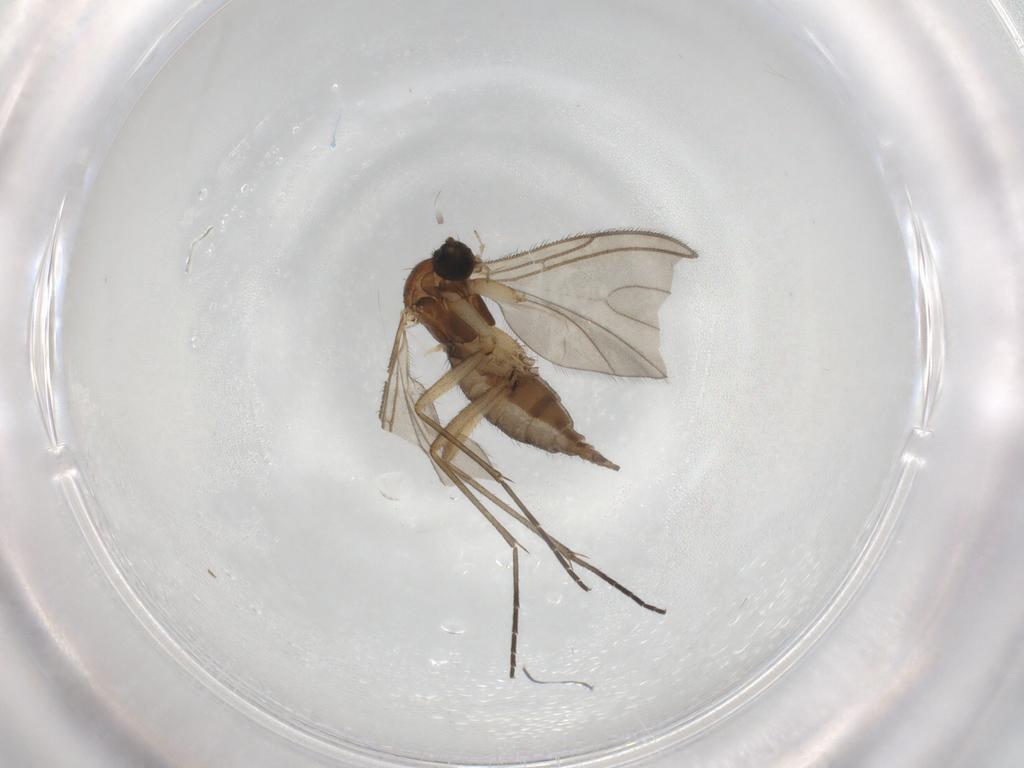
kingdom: Animalia
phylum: Arthropoda
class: Insecta
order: Diptera
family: Sciaridae
